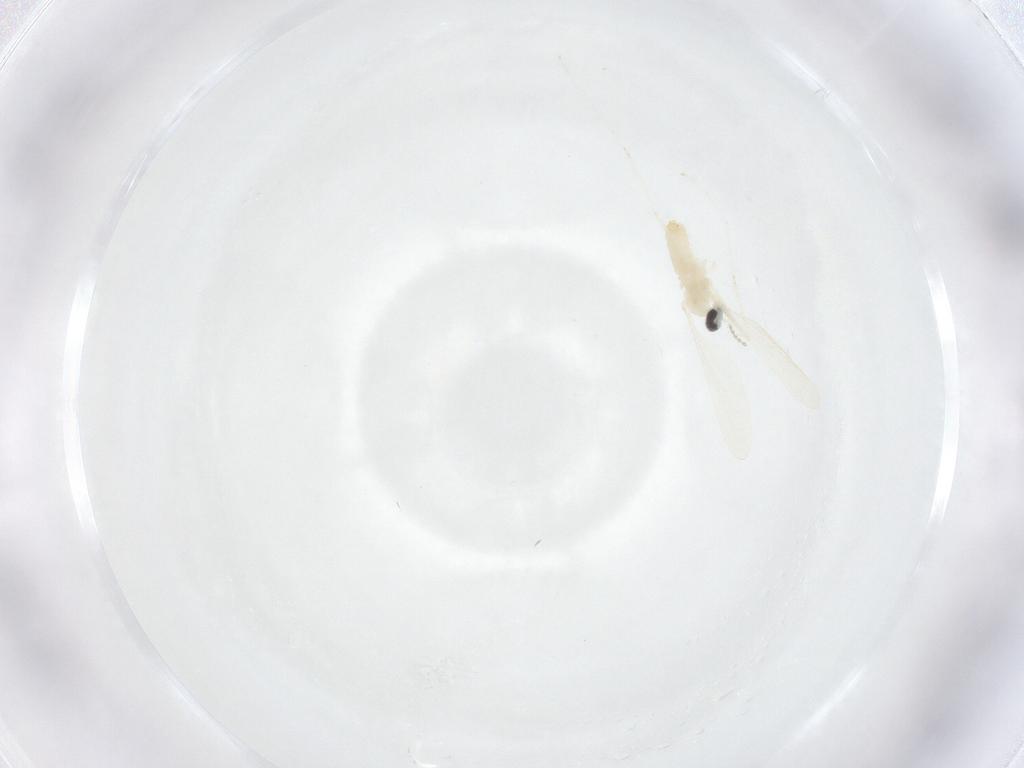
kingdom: Animalia
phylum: Arthropoda
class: Insecta
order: Diptera
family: Cecidomyiidae
